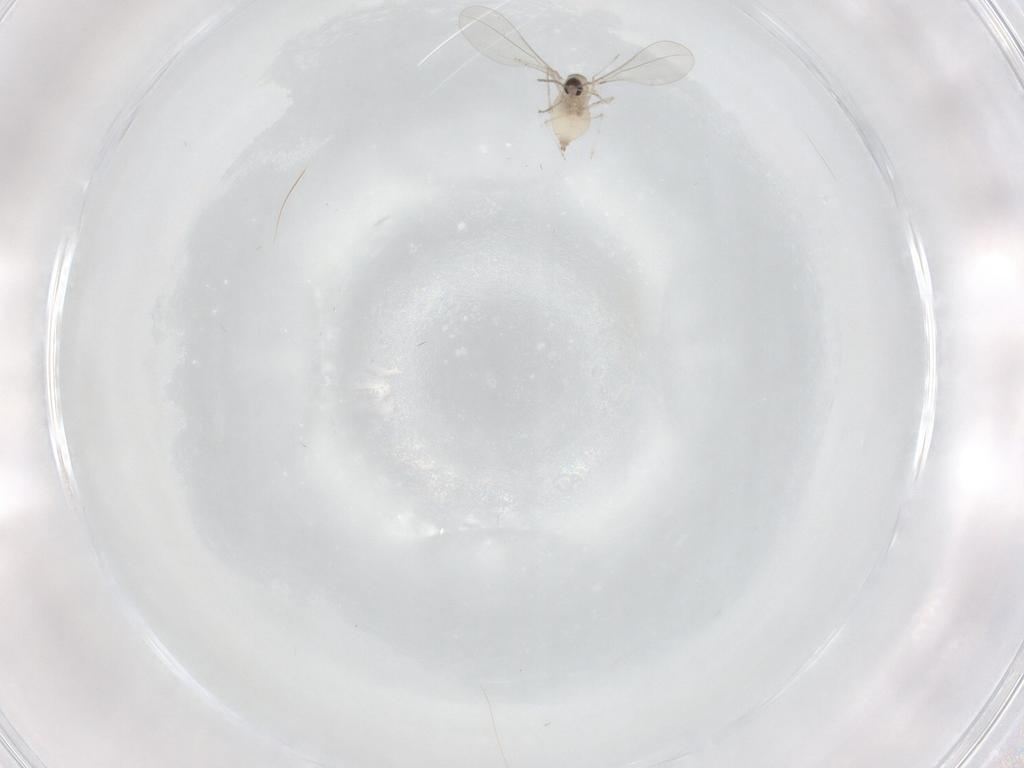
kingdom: Animalia
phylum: Arthropoda
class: Insecta
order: Diptera
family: Cecidomyiidae
